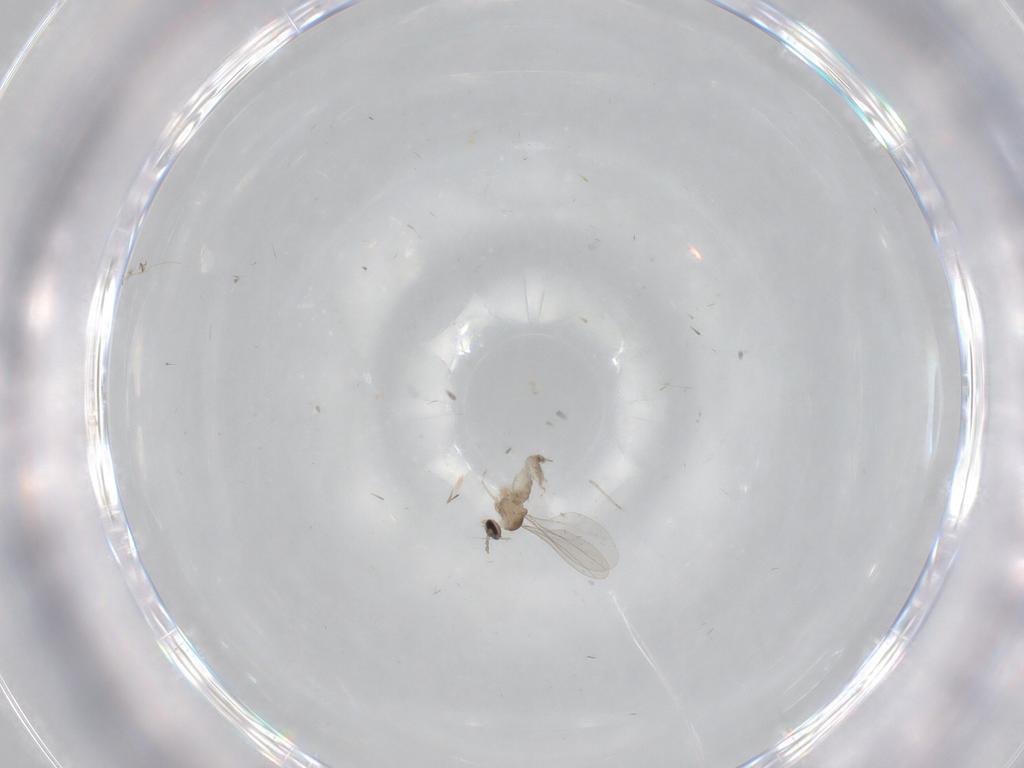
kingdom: Animalia
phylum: Arthropoda
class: Insecta
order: Diptera
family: Cecidomyiidae
